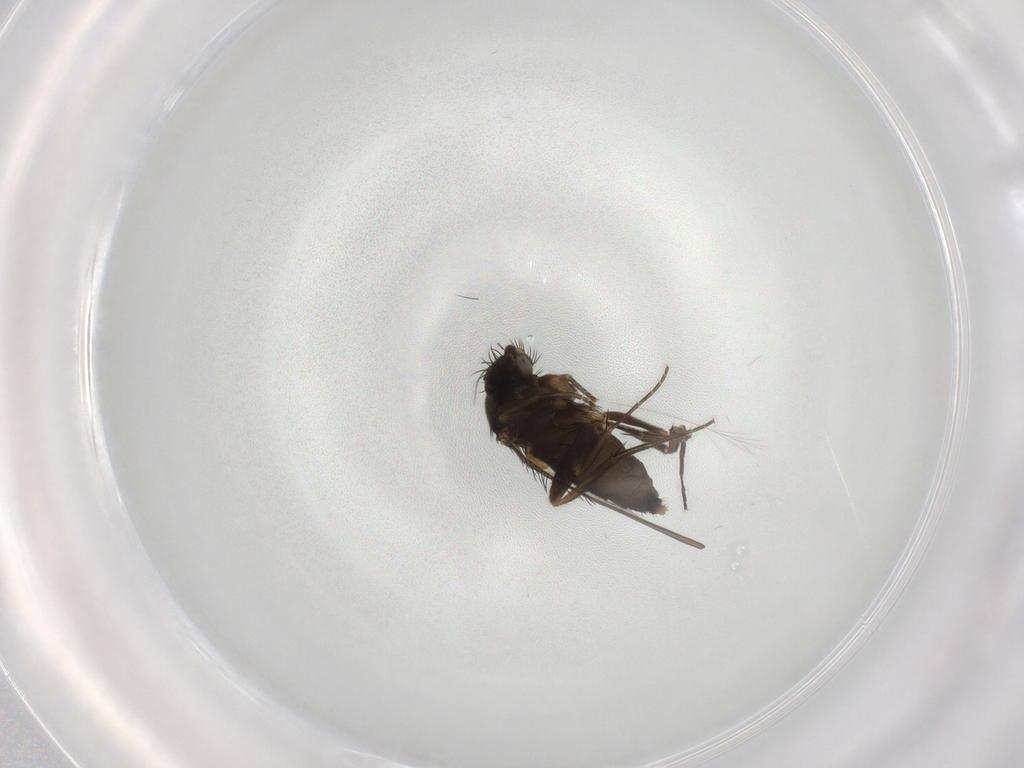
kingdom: Animalia
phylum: Arthropoda
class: Insecta
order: Diptera
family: Phoridae
